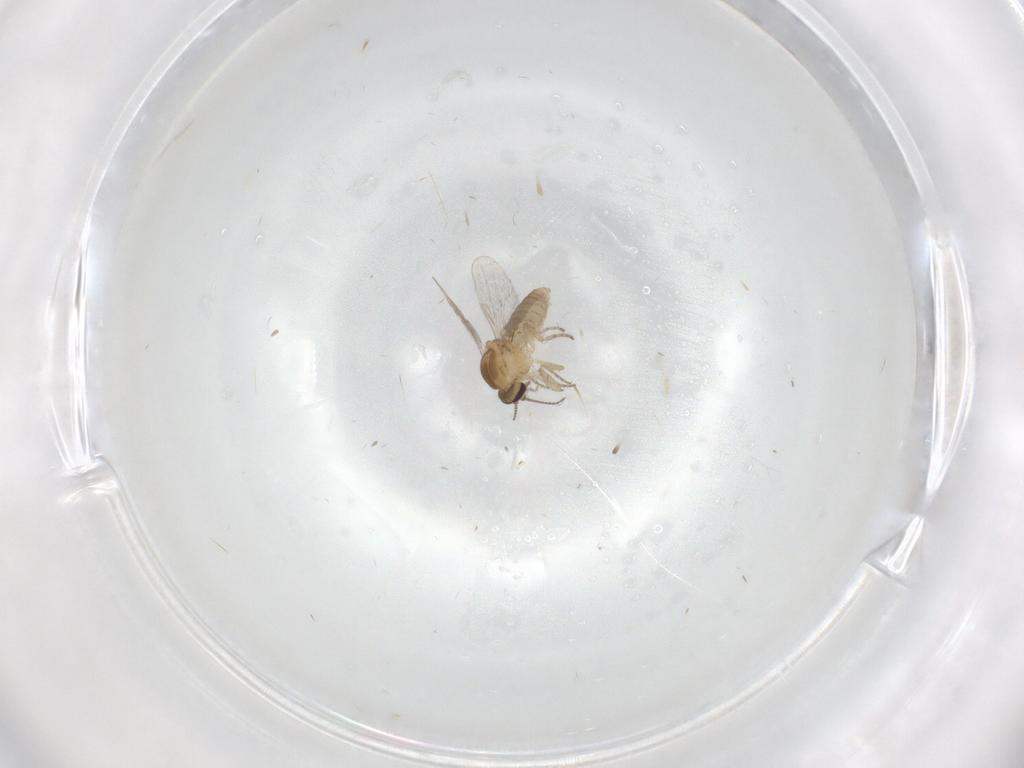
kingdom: Animalia
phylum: Arthropoda
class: Insecta
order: Diptera
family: Ceratopogonidae
